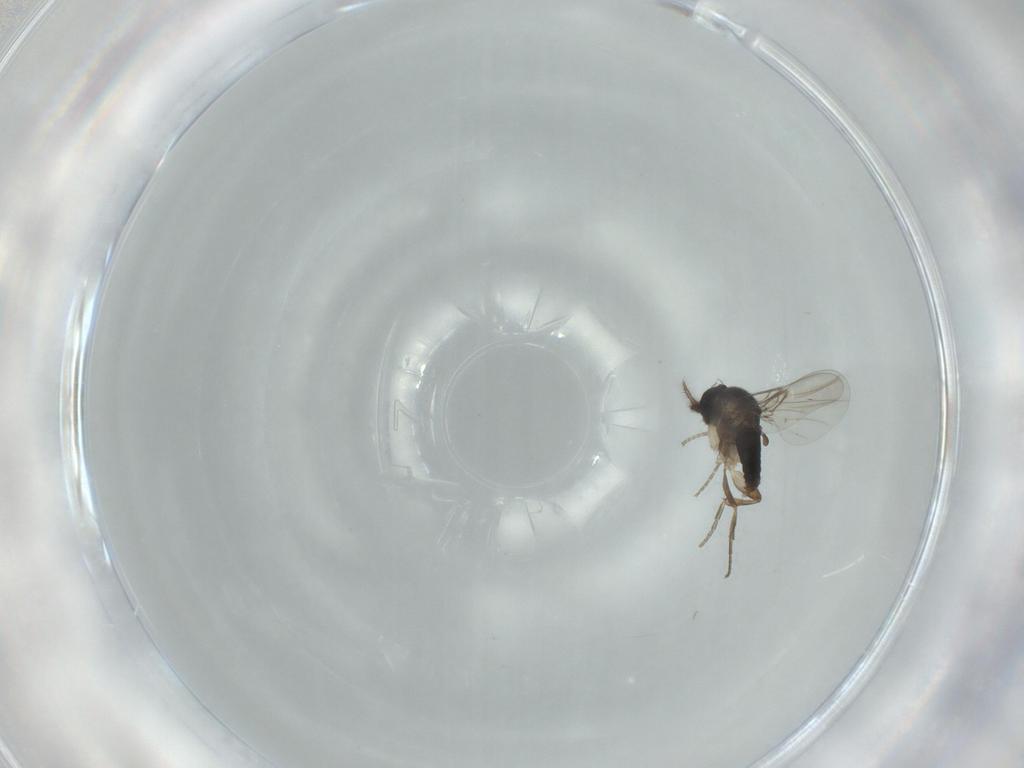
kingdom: Animalia
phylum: Arthropoda
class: Insecta
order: Diptera
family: Phoridae
